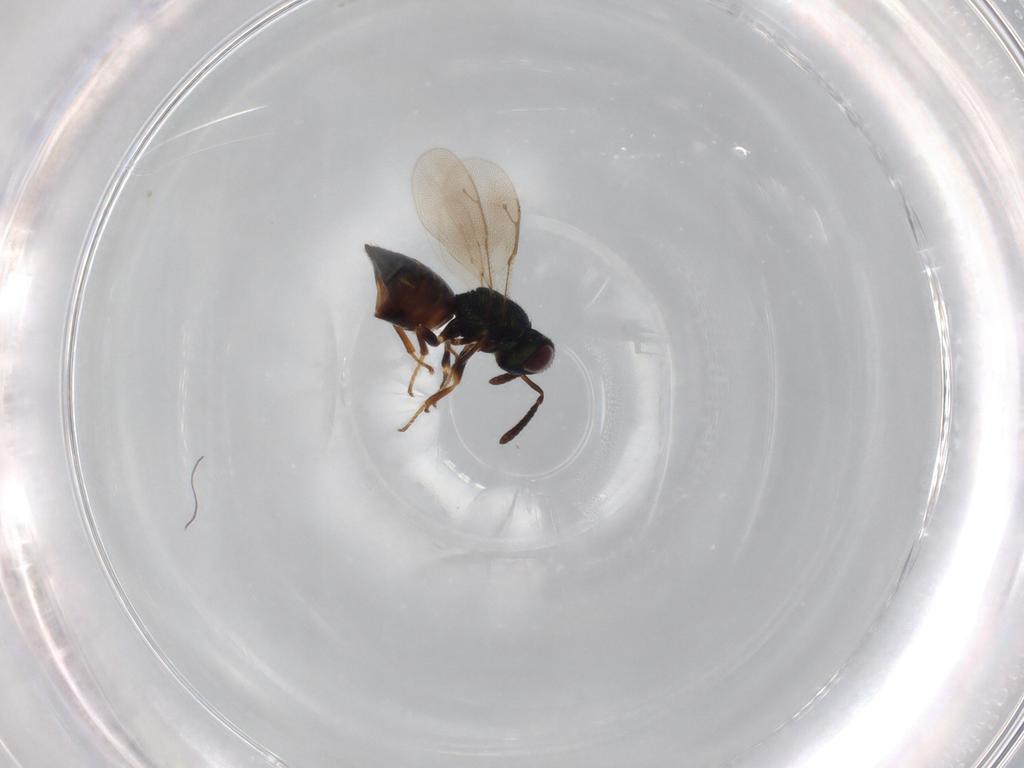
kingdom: Animalia
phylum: Arthropoda
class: Insecta
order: Hymenoptera
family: Pteromalidae
